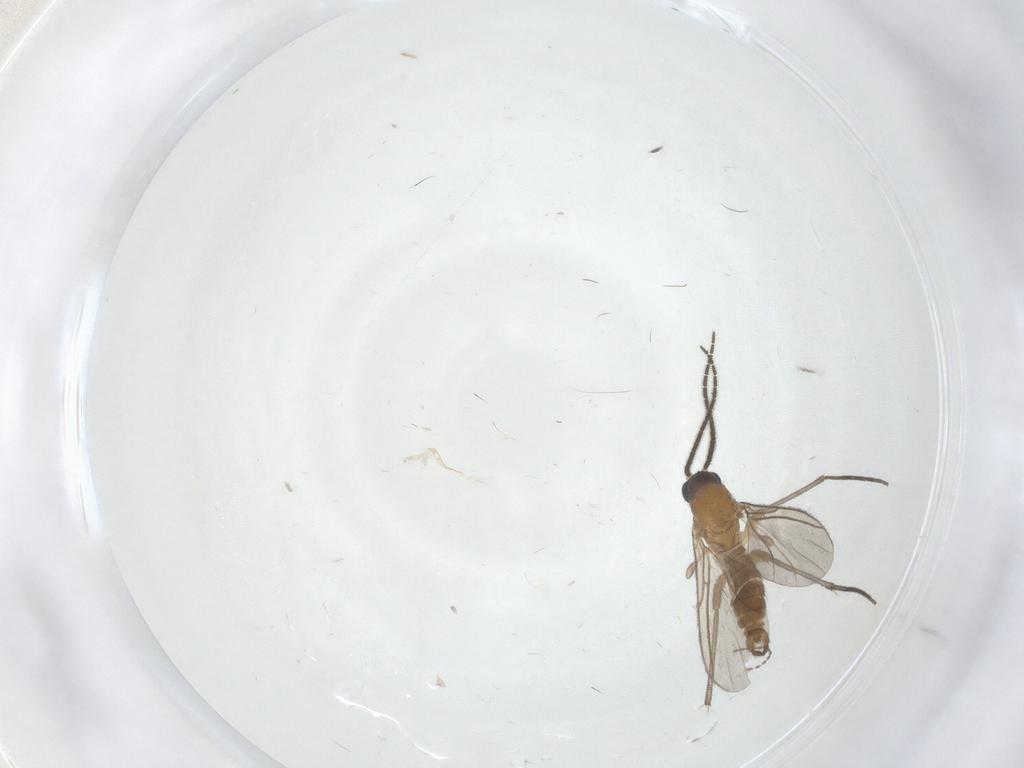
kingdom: Animalia
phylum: Arthropoda
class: Insecta
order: Diptera
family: Sciaridae
